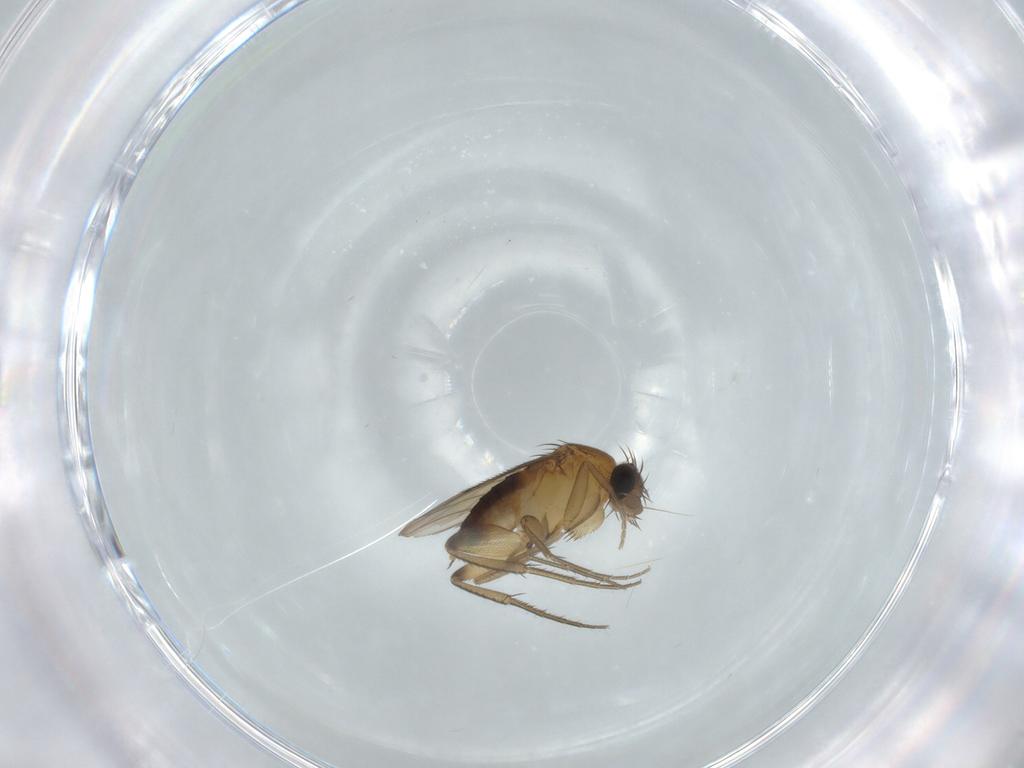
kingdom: Animalia
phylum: Arthropoda
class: Insecta
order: Diptera
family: Phoridae
